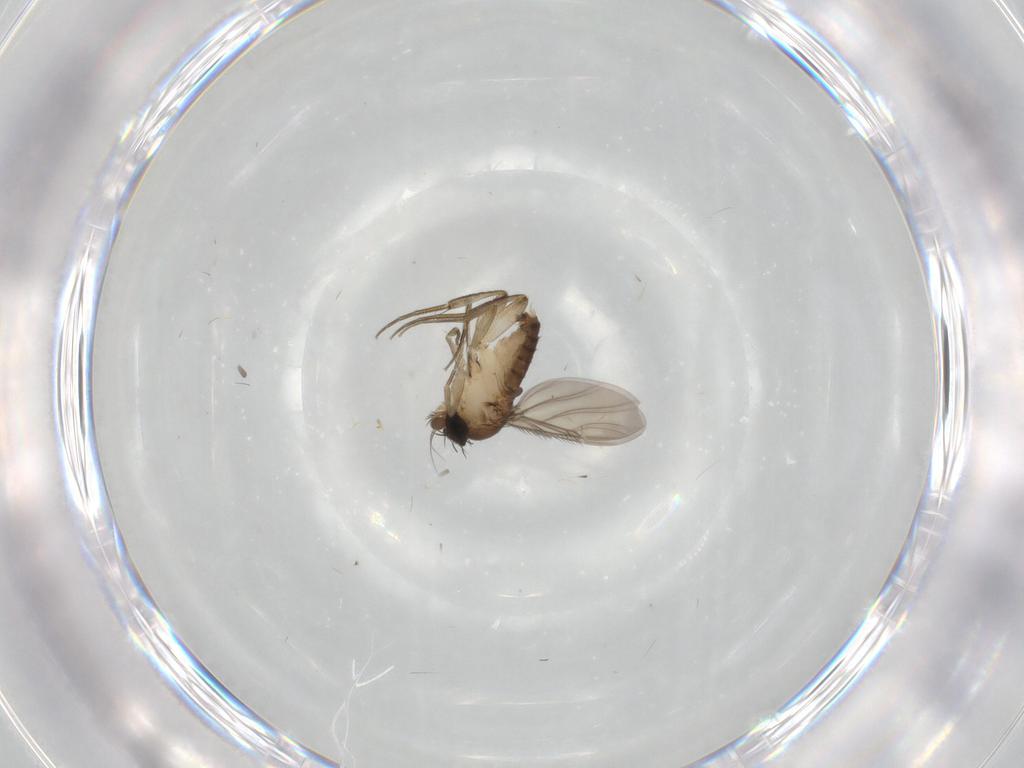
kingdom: Animalia
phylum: Arthropoda
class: Insecta
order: Diptera
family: Phoridae
